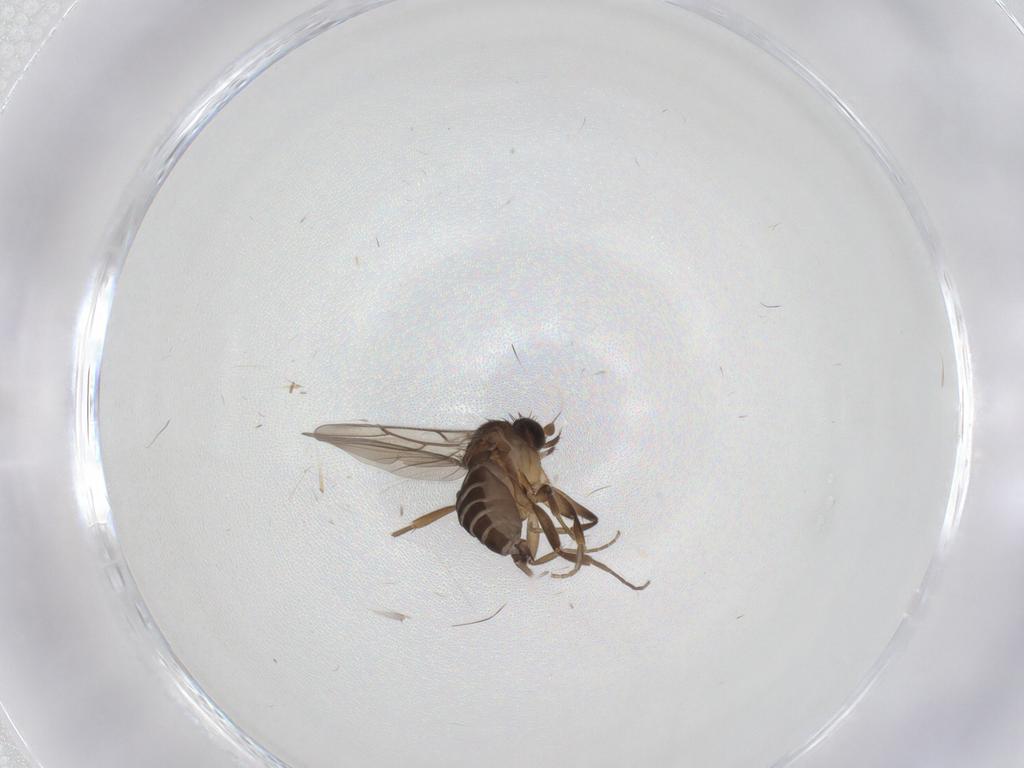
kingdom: Animalia
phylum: Arthropoda
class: Insecta
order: Diptera
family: Phoridae
